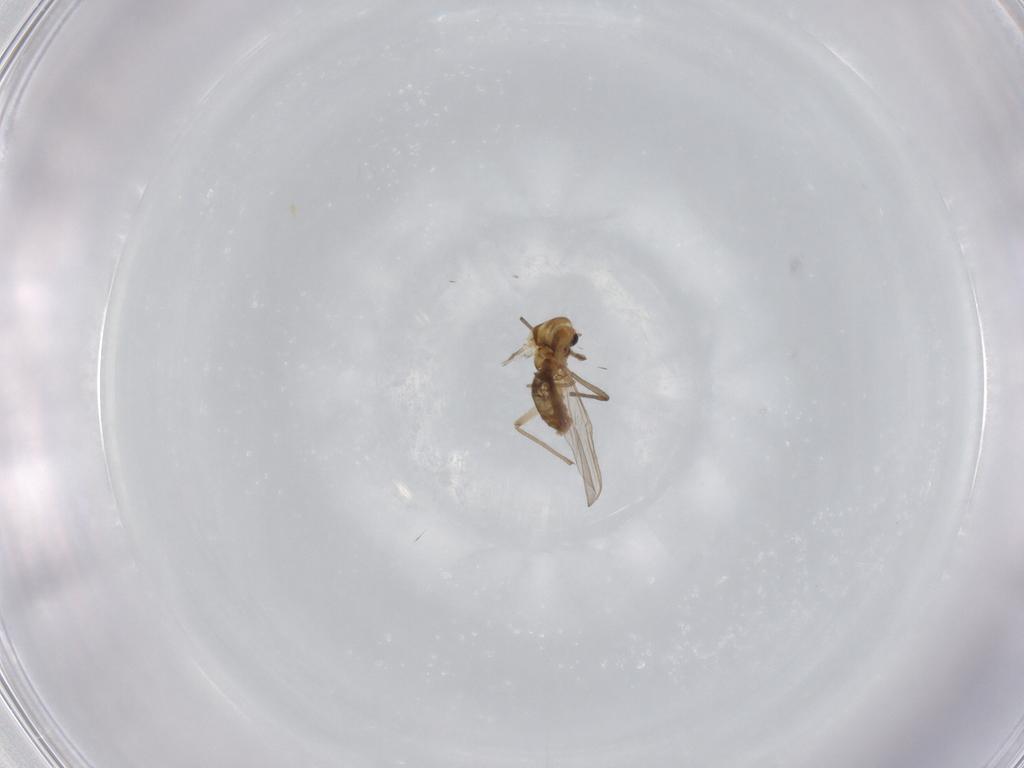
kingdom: Animalia
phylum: Arthropoda
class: Insecta
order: Diptera
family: Chironomidae
